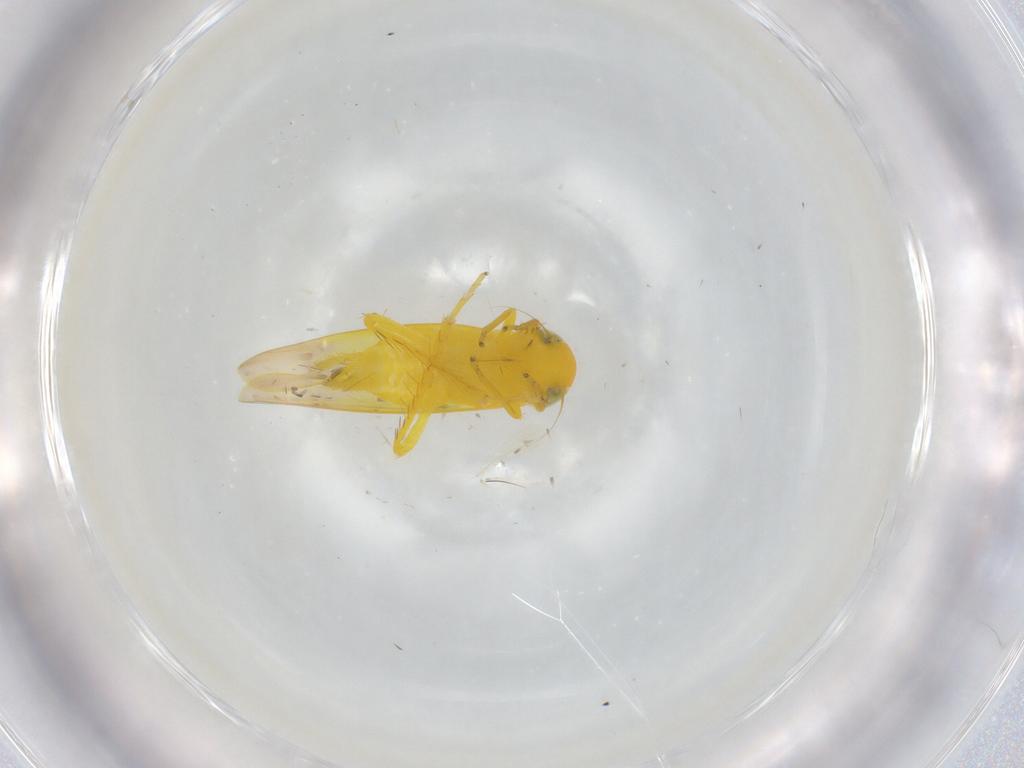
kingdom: Animalia
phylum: Arthropoda
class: Insecta
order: Hemiptera
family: Cicadellidae
